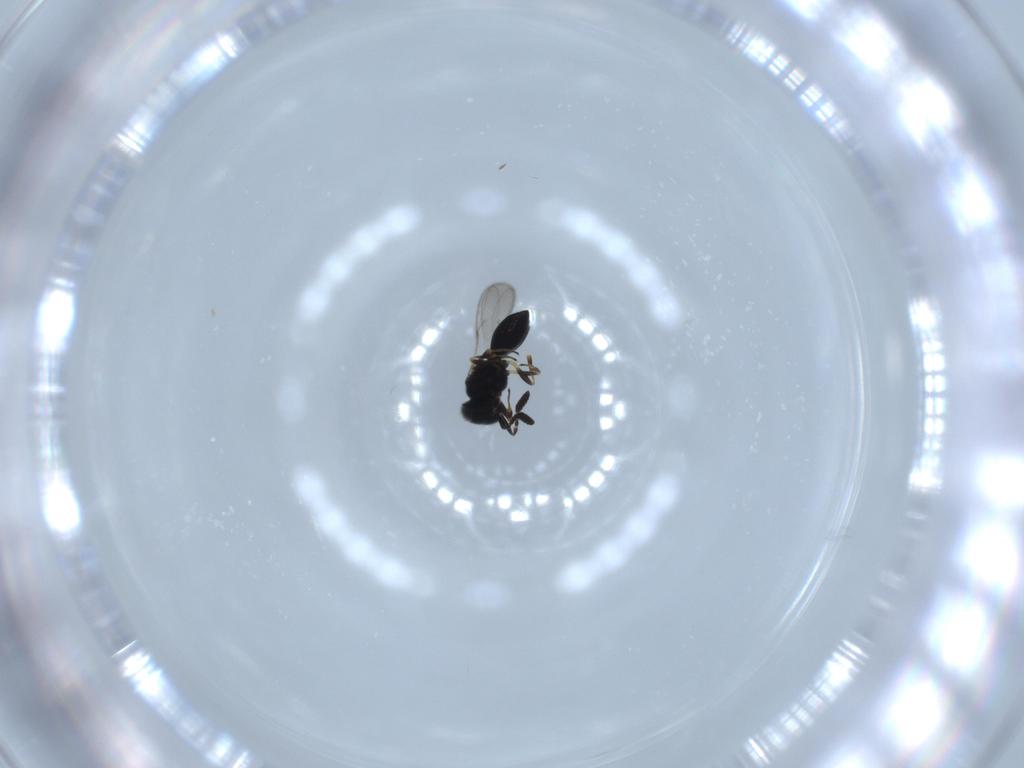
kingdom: Animalia
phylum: Arthropoda
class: Insecta
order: Hymenoptera
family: Scelionidae
